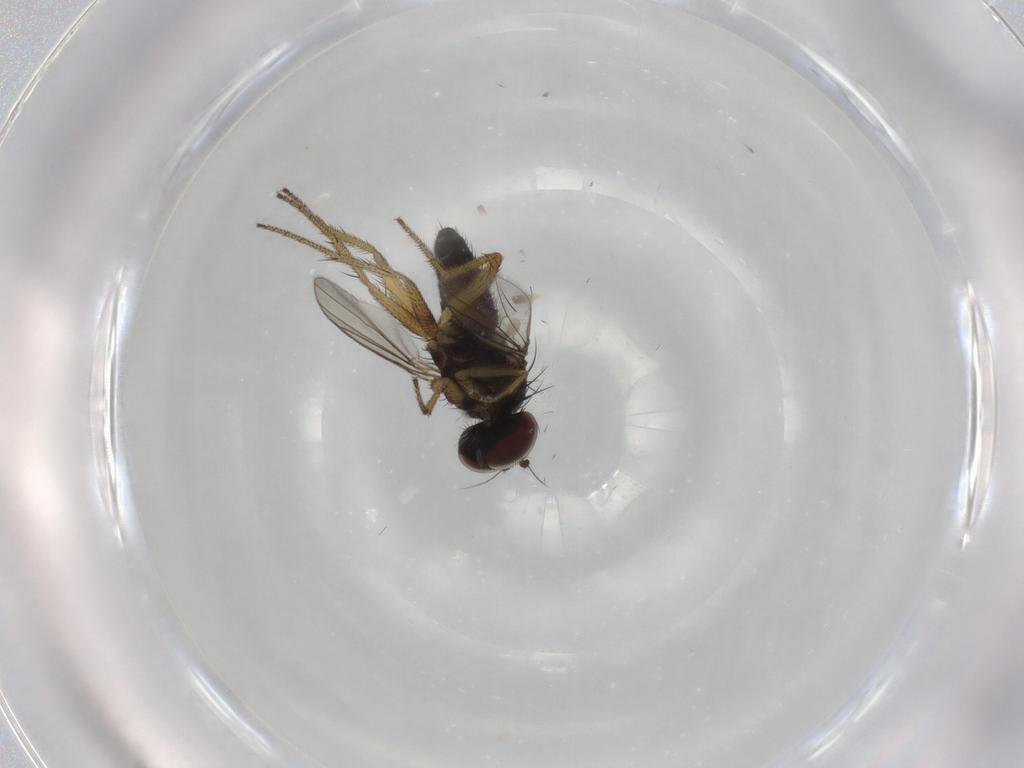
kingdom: Animalia
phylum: Arthropoda
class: Insecta
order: Diptera
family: Dolichopodidae
